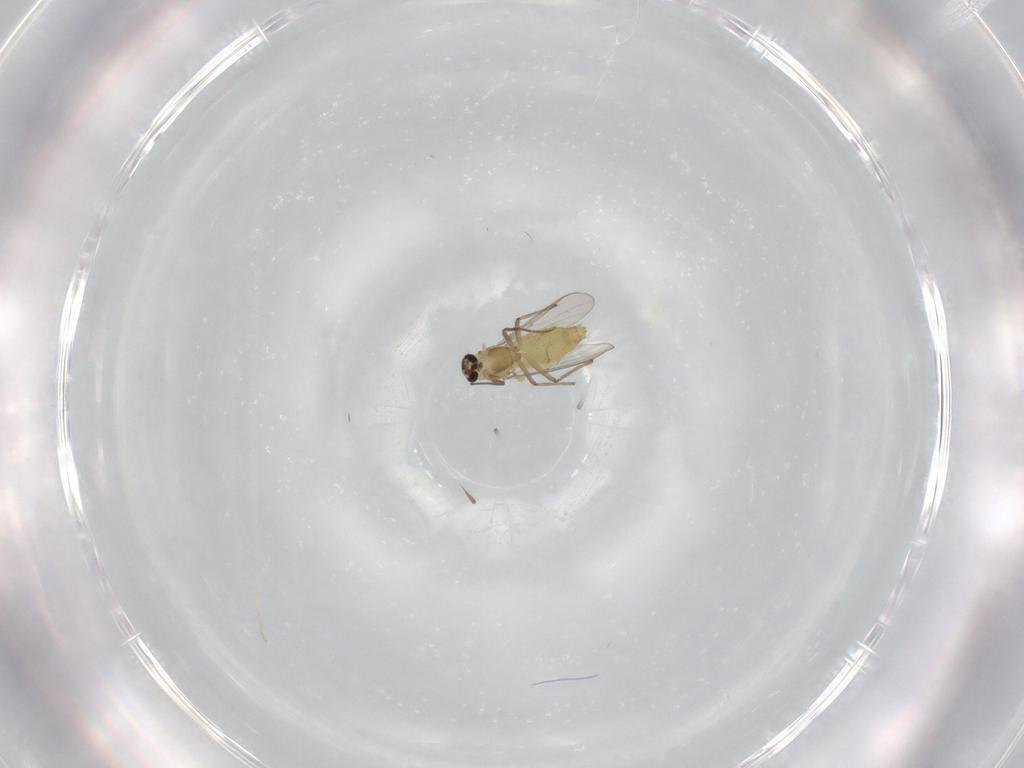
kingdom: Animalia
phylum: Arthropoda
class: Insecta
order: Diptera
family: Chironomidae
